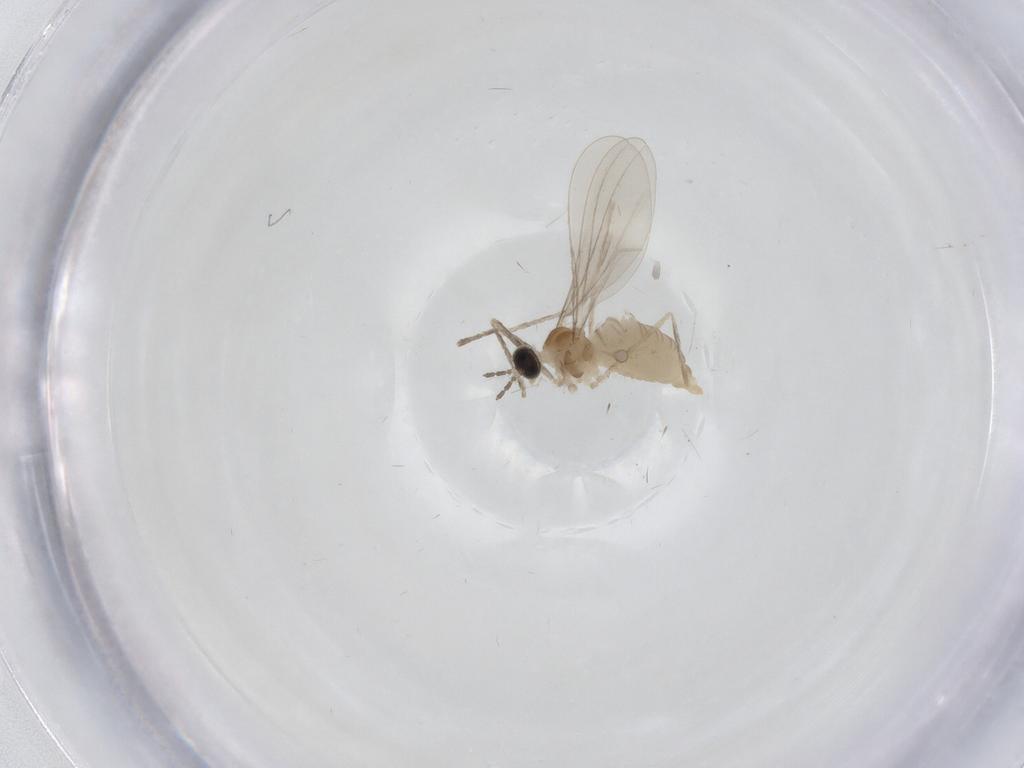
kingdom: Animalia
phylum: Arthropoda
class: Insecta
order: Diptera
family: Cecidomyiidae
